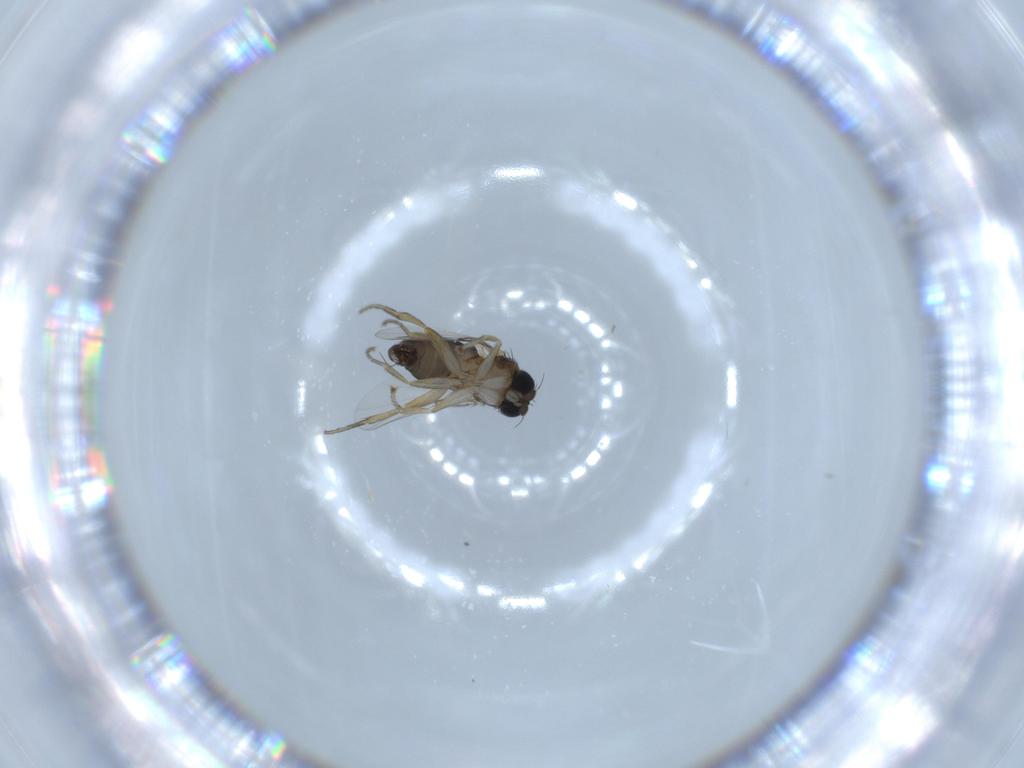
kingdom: Animalia
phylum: Arthropoda
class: Insecta
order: Diptera
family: Phoridae
